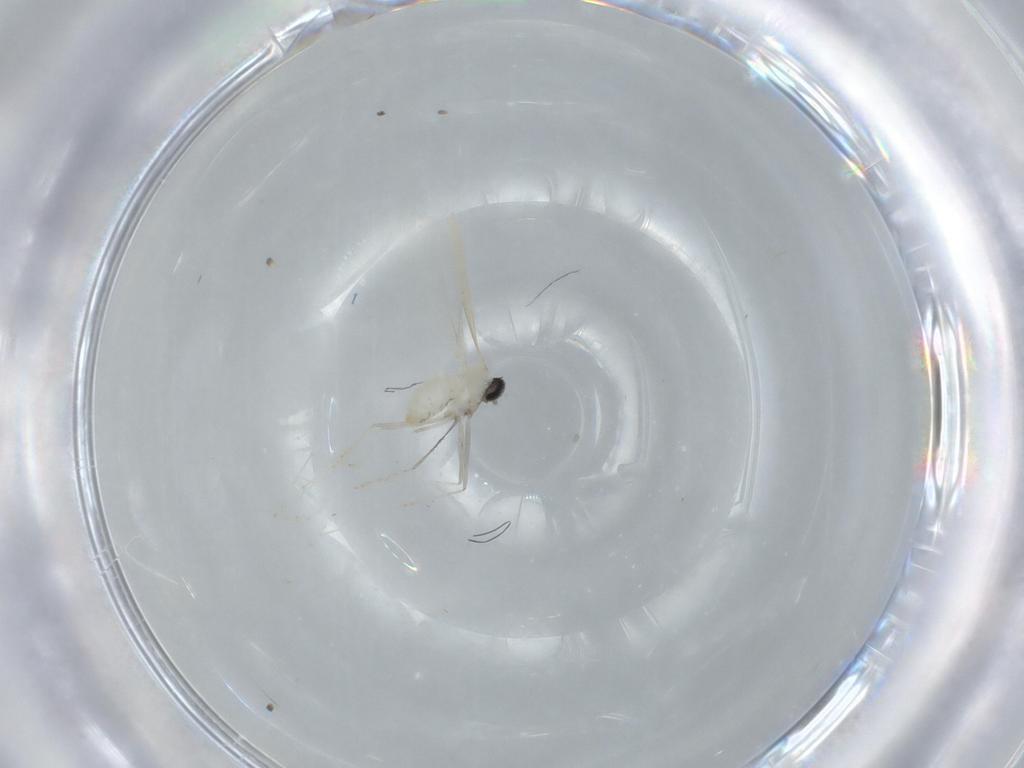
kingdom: Animalia
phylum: Arthropoda
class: Insecta
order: Diptera
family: Cecidomyiidae
